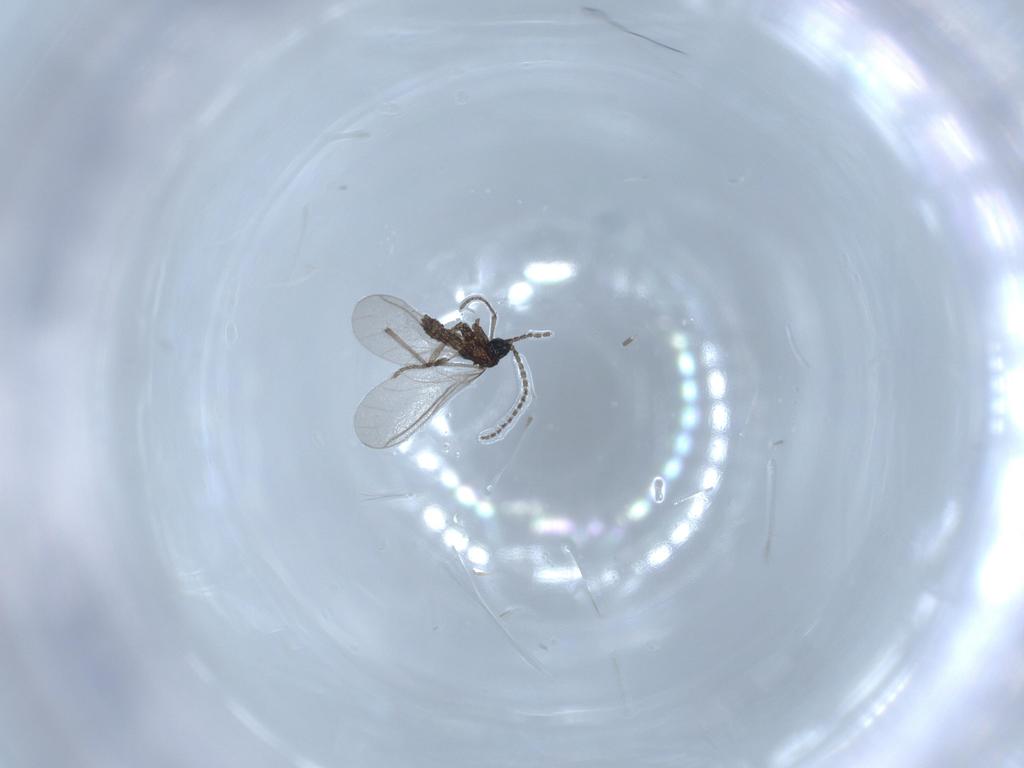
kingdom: Animalia
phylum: Arthropoda
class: Insecta
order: Diptera
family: Sciaridae
